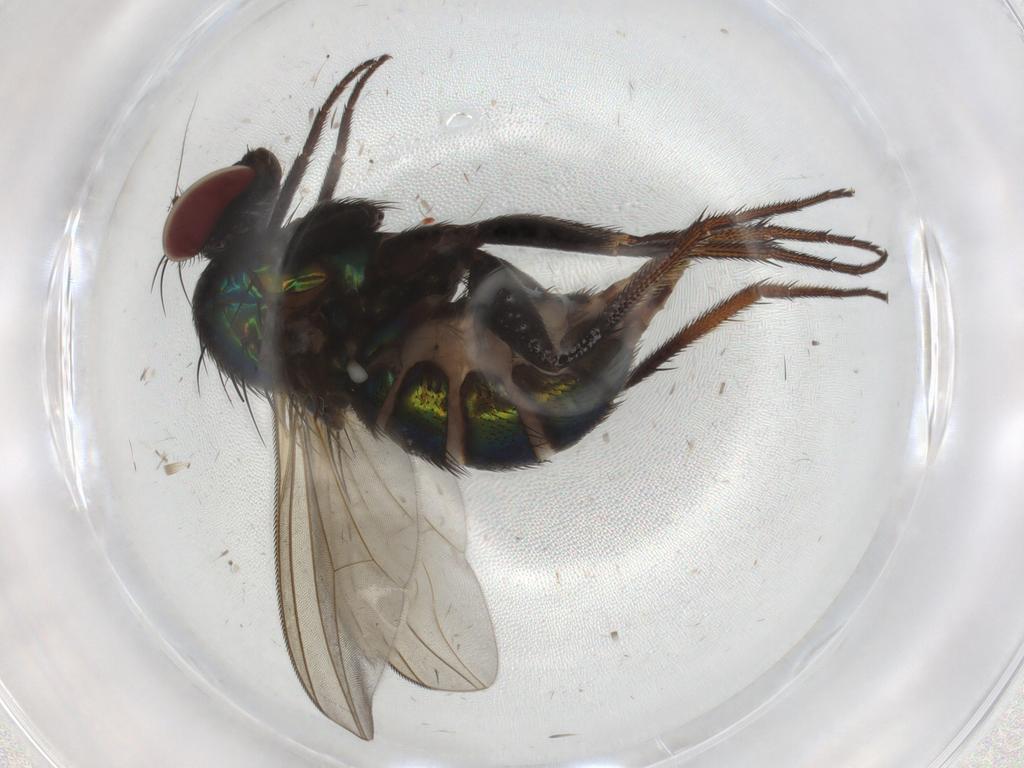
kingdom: Animalia
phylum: Arthropoda
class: Insecta
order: Diptera
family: Dolichopodidae
